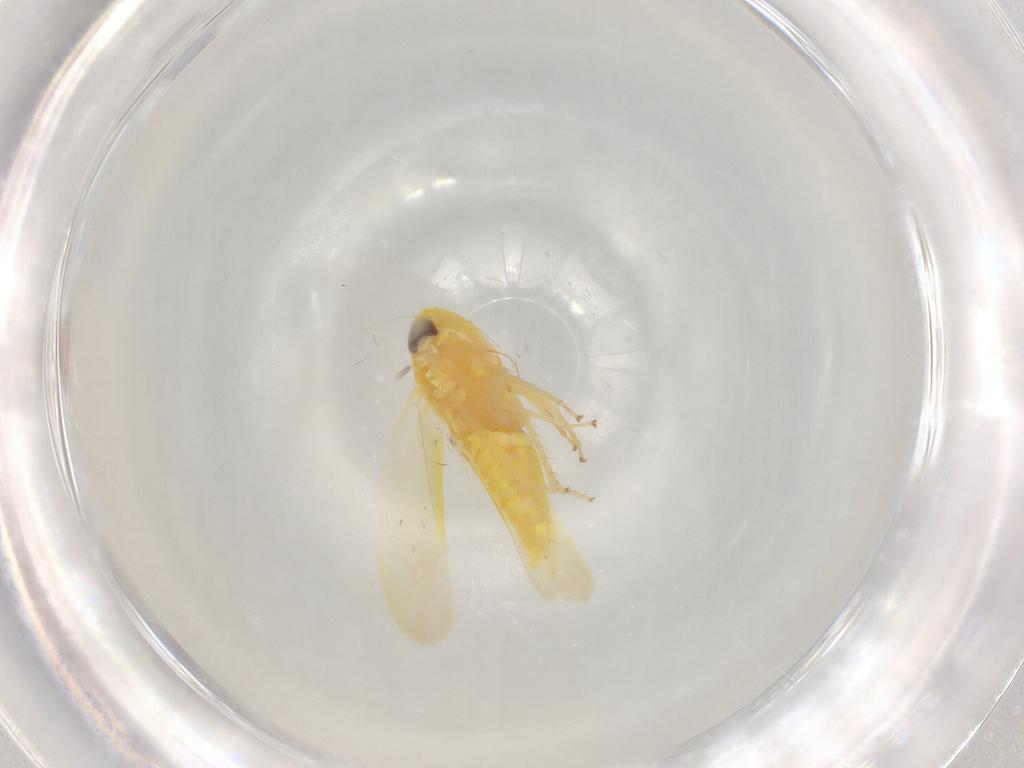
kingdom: Animalia
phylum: Arthropoda
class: Insecta
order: Hemiptera
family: Cicadellidae
